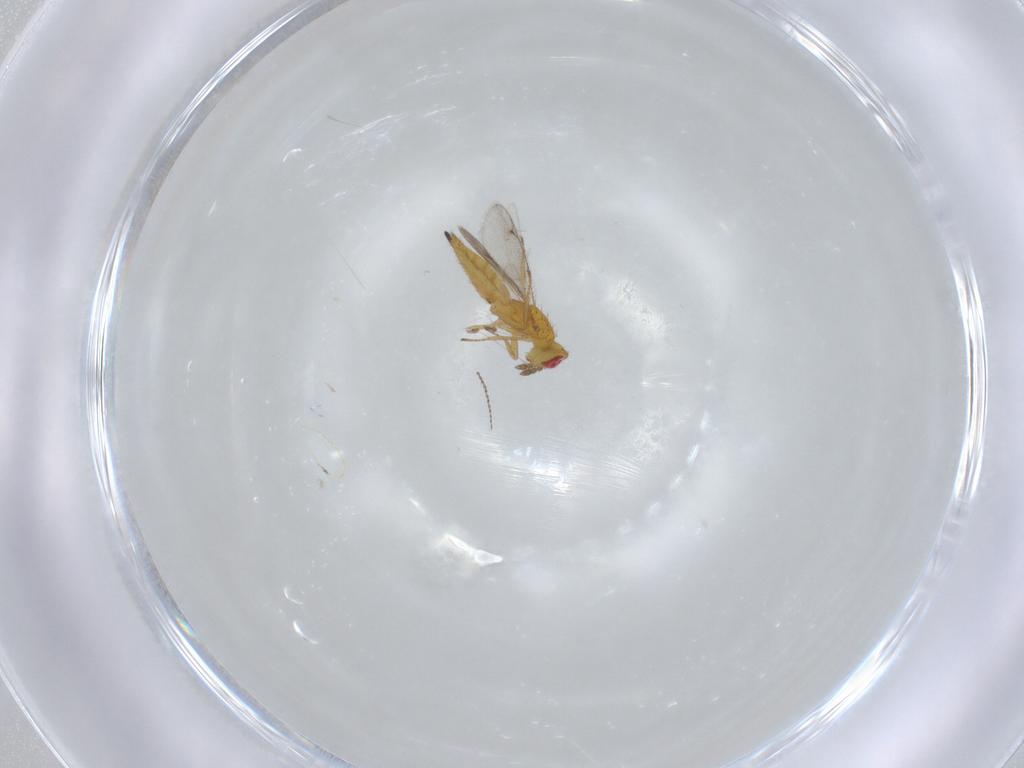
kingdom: Animalia
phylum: Arthropoda
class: Insecta
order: Hymenoptera
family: Eulophidae
